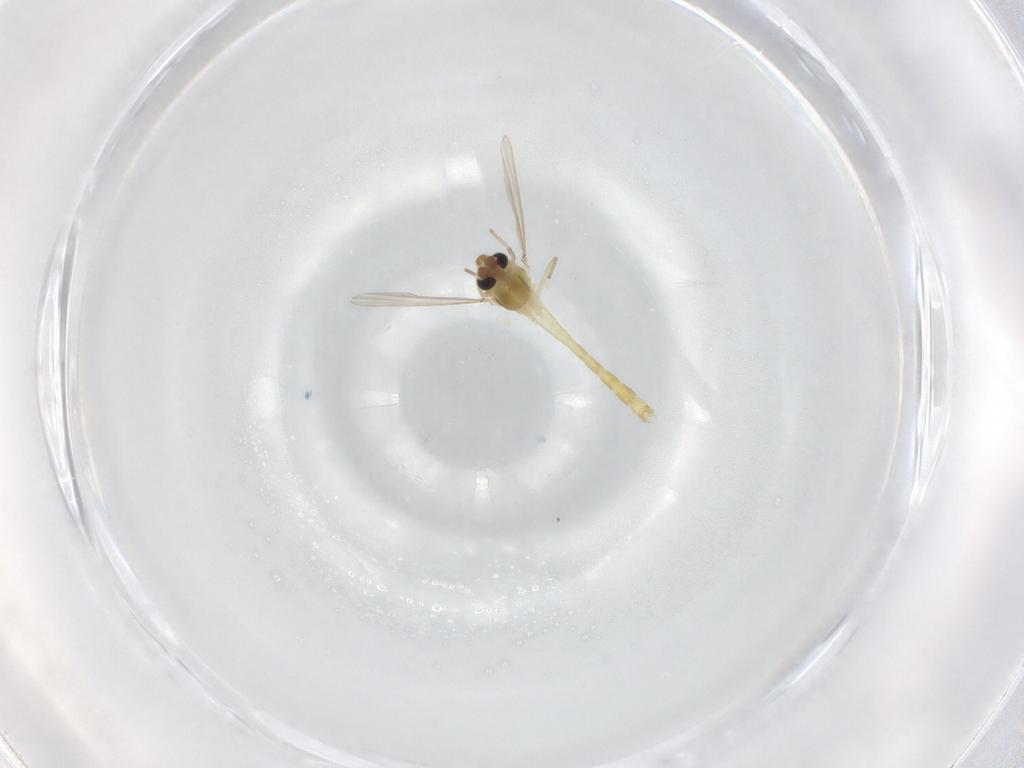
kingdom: Animalia
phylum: Arthropoda
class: Insecta
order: Diptera
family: Chironomidae
